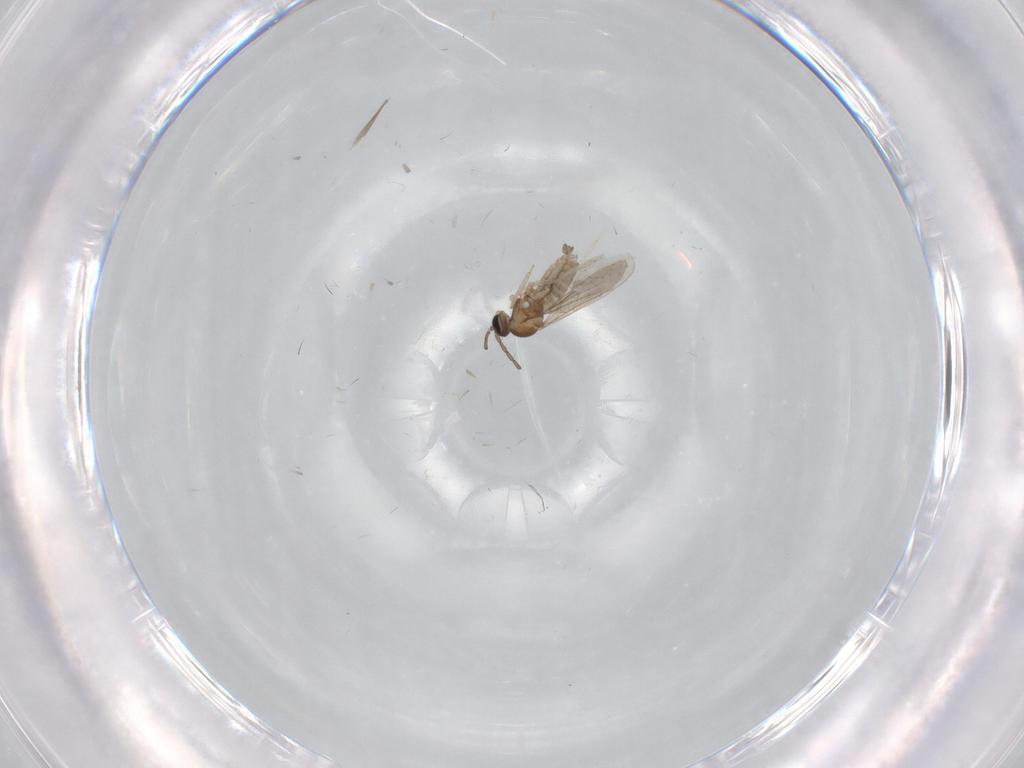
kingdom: Animalia
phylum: Arthropoda
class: Insecta
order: Diptera
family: Cecidomyiidae
